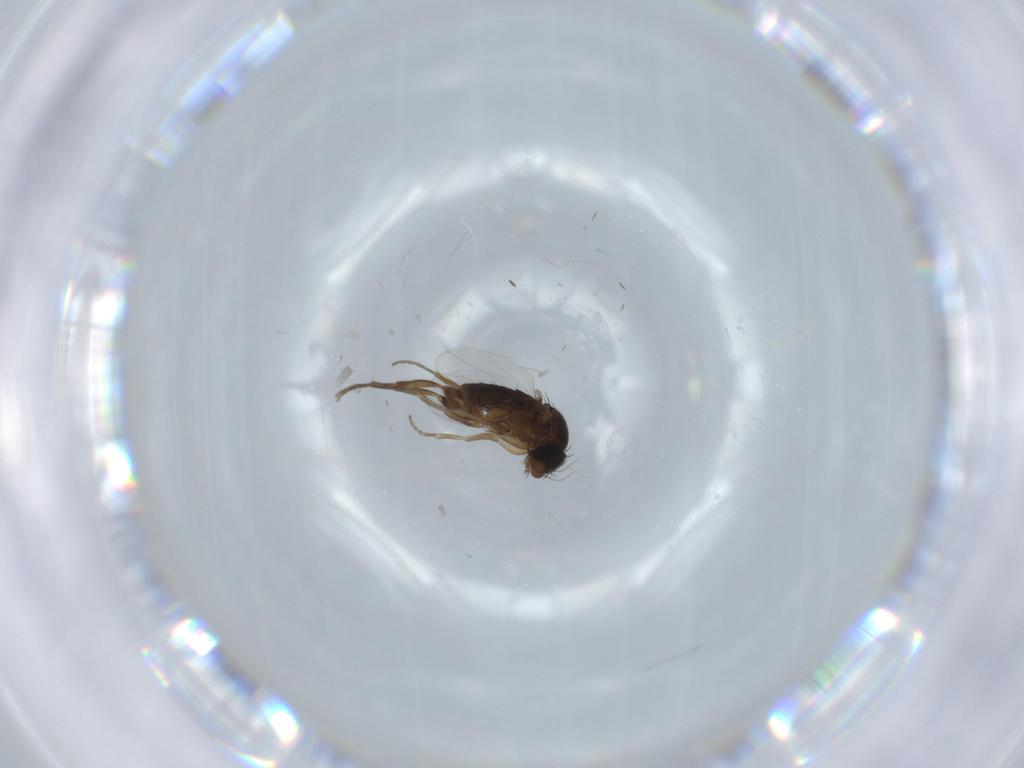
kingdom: Animalia
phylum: Arthropoda
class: Insecta
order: Diptera
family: Phoridae
